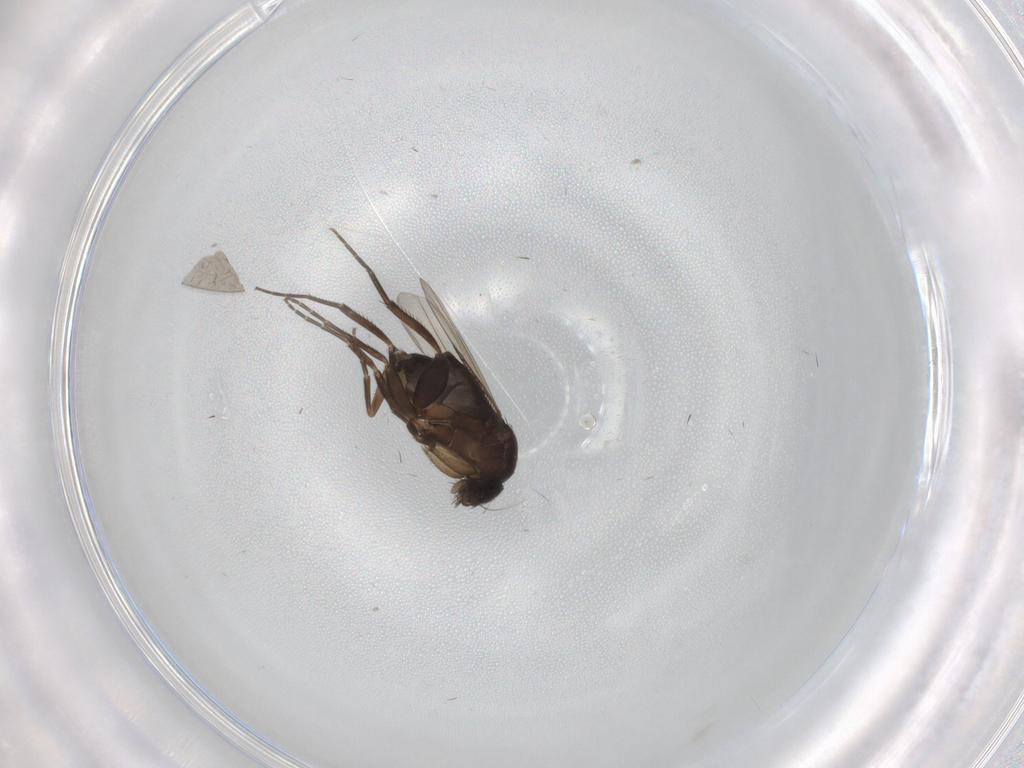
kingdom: Animalia
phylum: Arthropoda
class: Insecta
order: Diptera
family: Phoridae
